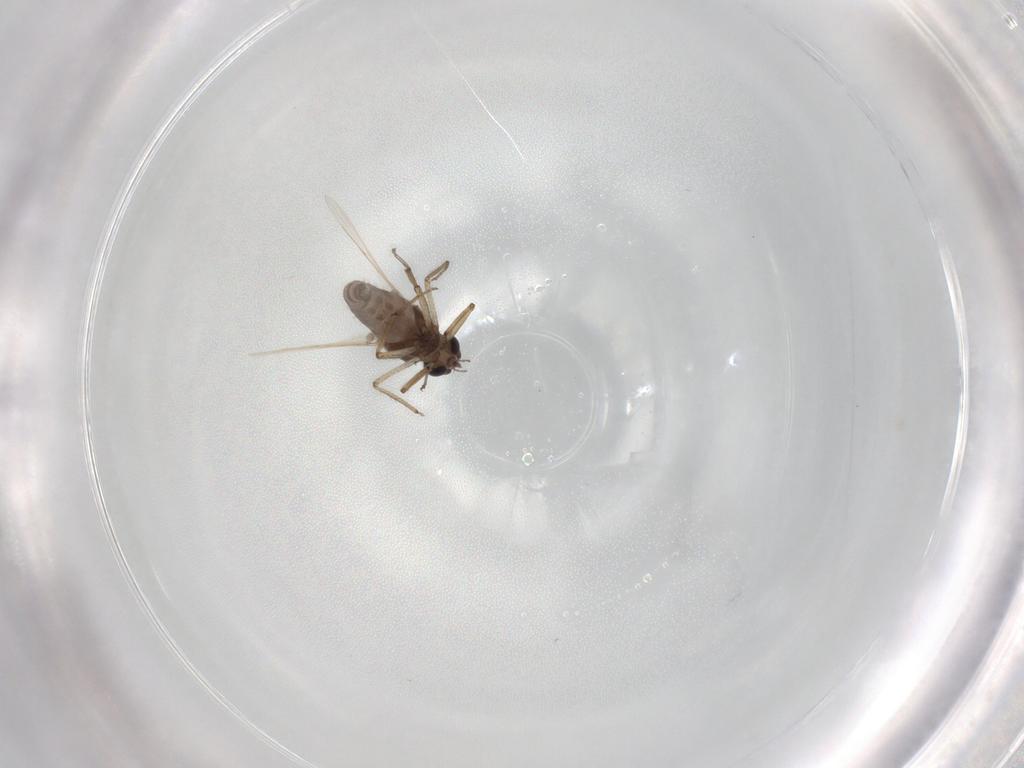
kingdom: Animalia
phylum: Arthropoda
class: Insecta
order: Diptera
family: Ceratopogonidae
